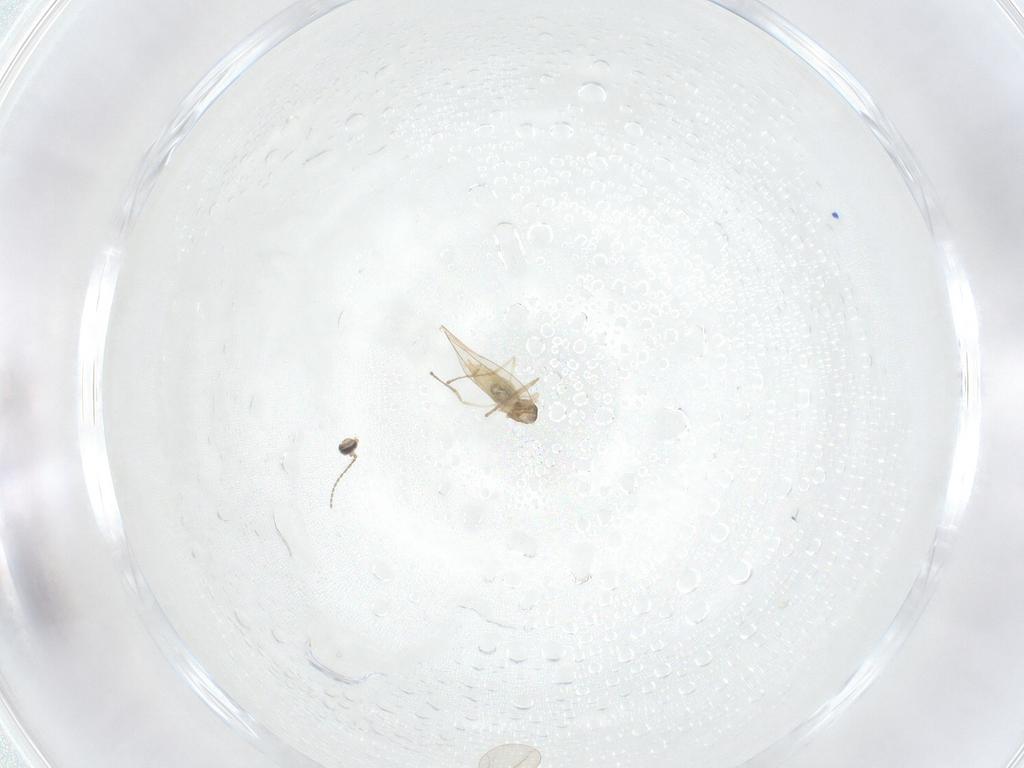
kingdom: Animalia
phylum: Arthropoda
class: Insecta
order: Diptera
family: Cecidomyiidae
